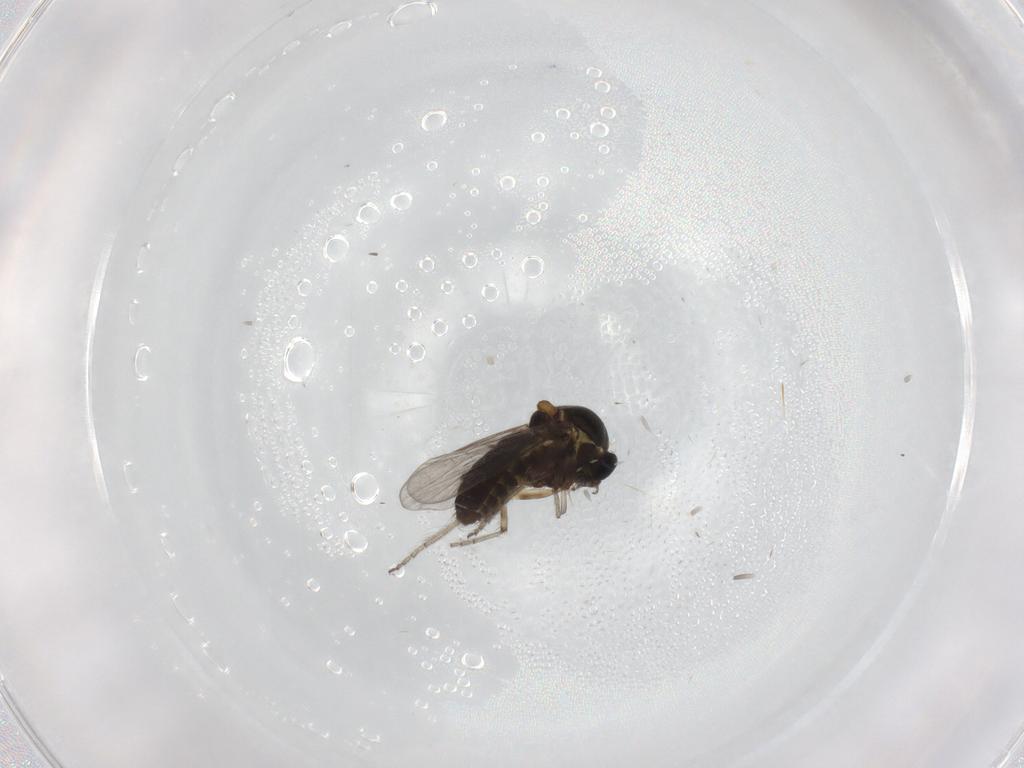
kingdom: Animalia
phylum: Arthropoda
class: Insecta
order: Diptera
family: Ceratopogonidae
